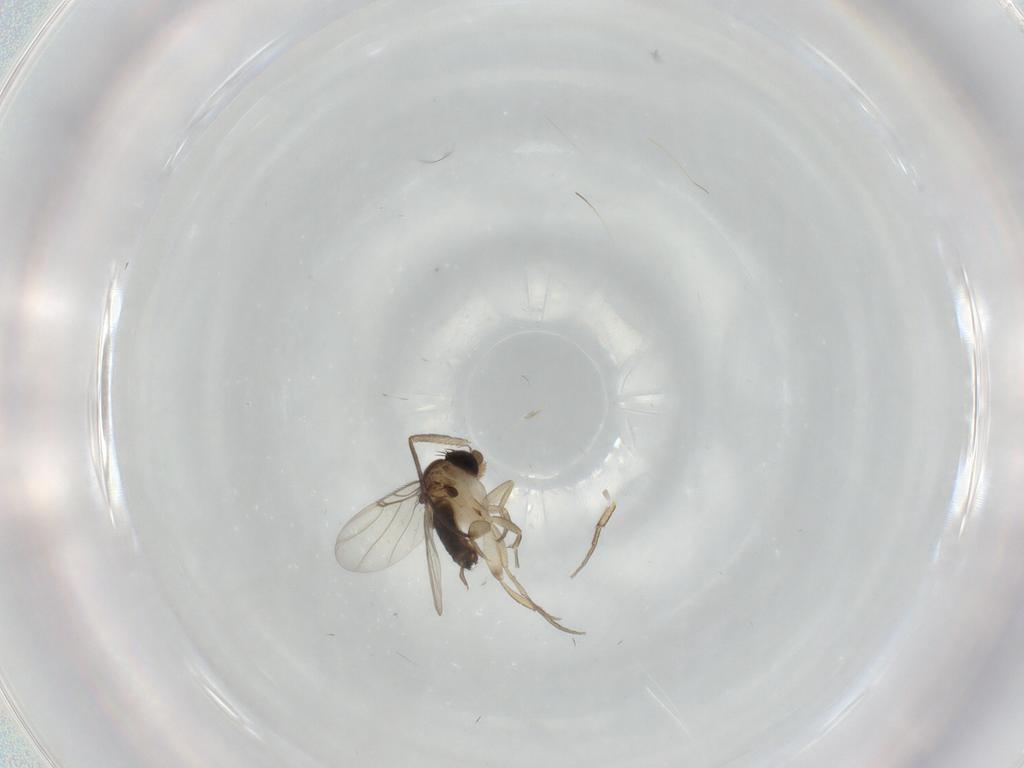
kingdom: Animalia
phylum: Arthropoda
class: Insecta
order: Diptera
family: Sciaridae
